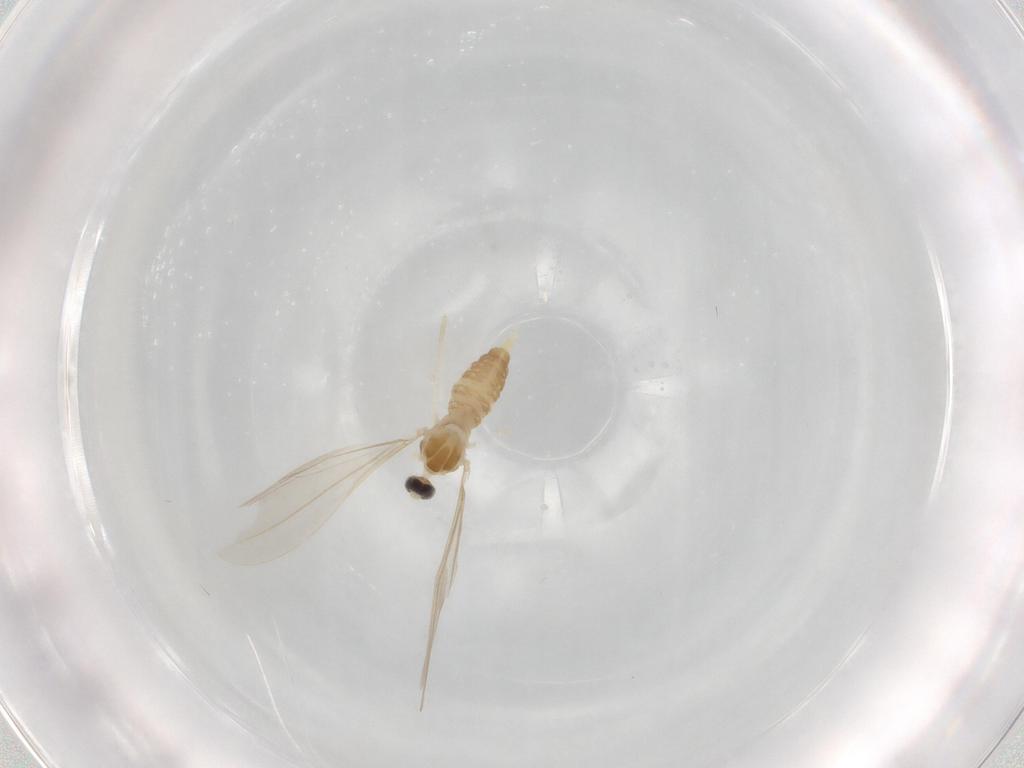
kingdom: Animalia
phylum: Arthropoda
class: Insecta
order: Diptera
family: Cecidomyiidae
